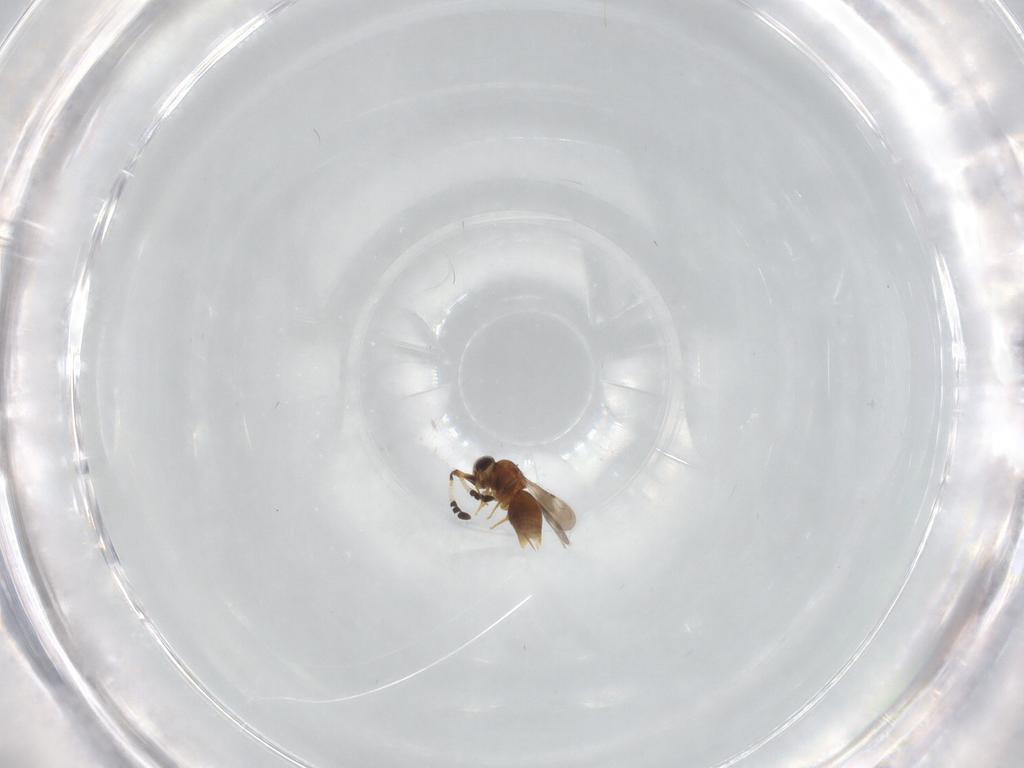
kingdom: Animalia
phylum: Arthropoda
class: Insecta
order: Hymenoptera
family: Ceraphronidae
